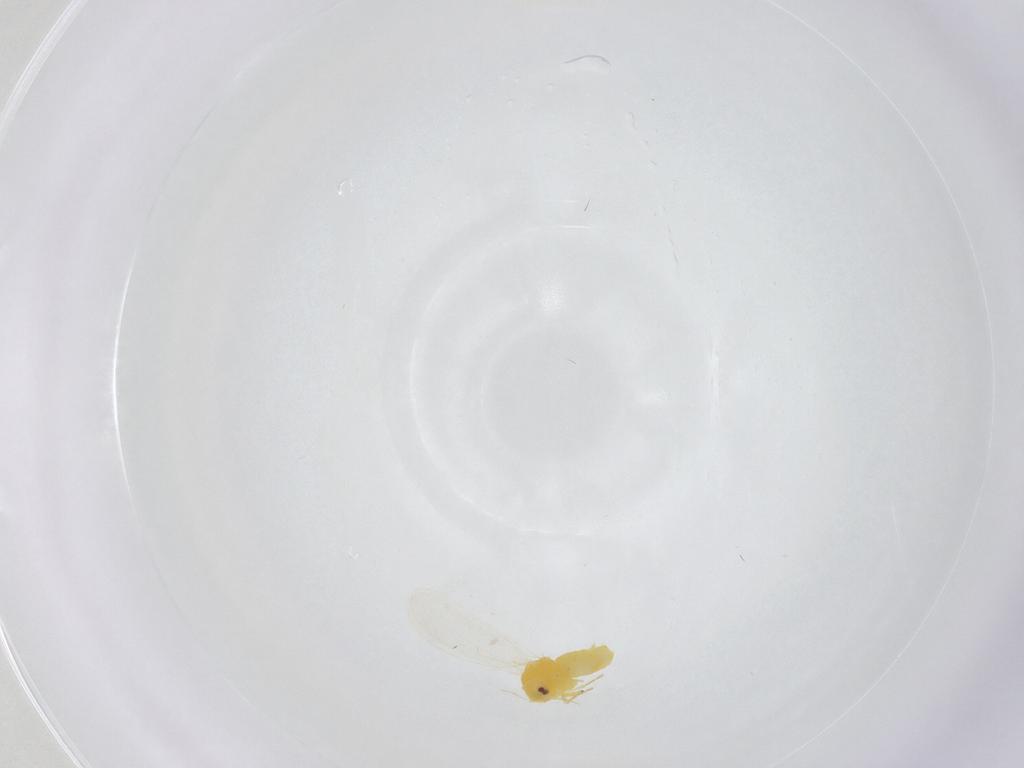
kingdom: Animalia
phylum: Arthropoda
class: Insecta
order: Hemiptera
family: Aleyrodidae
